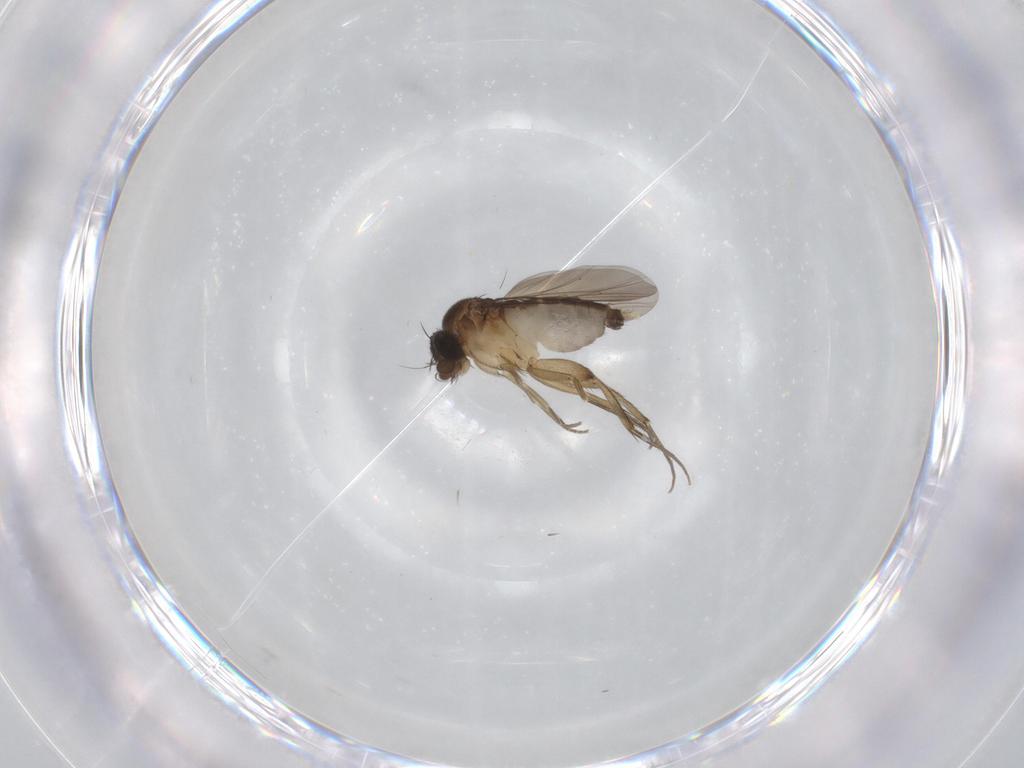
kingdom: Animalia
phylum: Arthropoda
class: Insecta
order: Diptera
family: Phoridae
